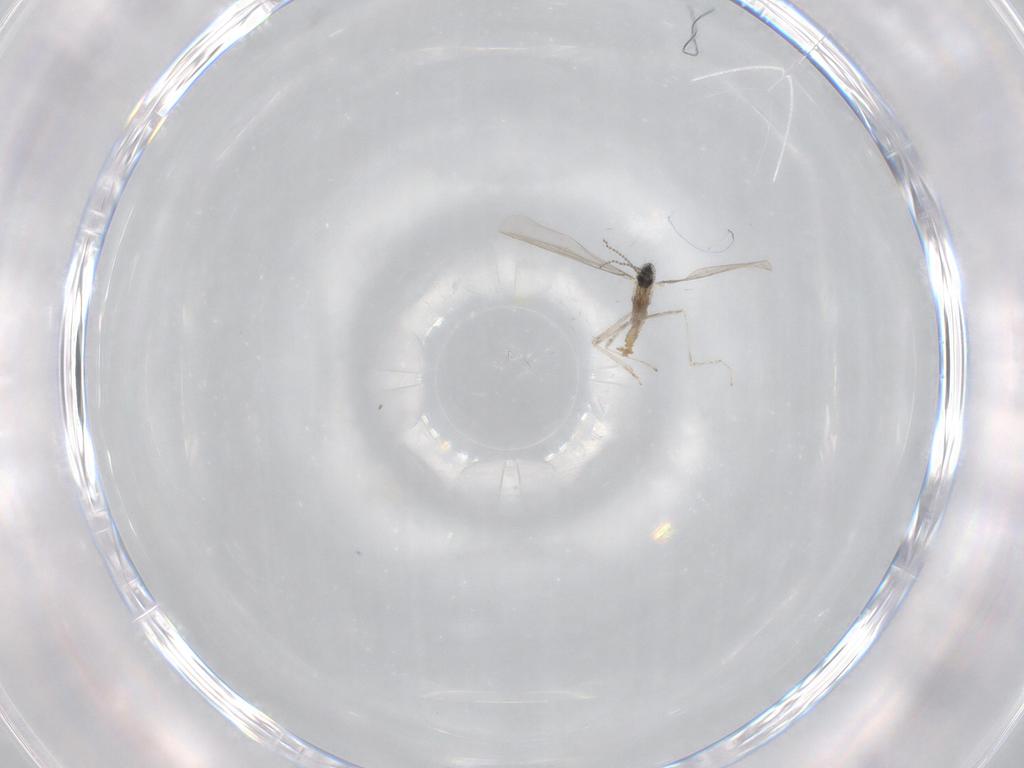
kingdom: Animalia
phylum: Arthropoda
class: Insecta
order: Diptera
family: Cecidomyiidae
